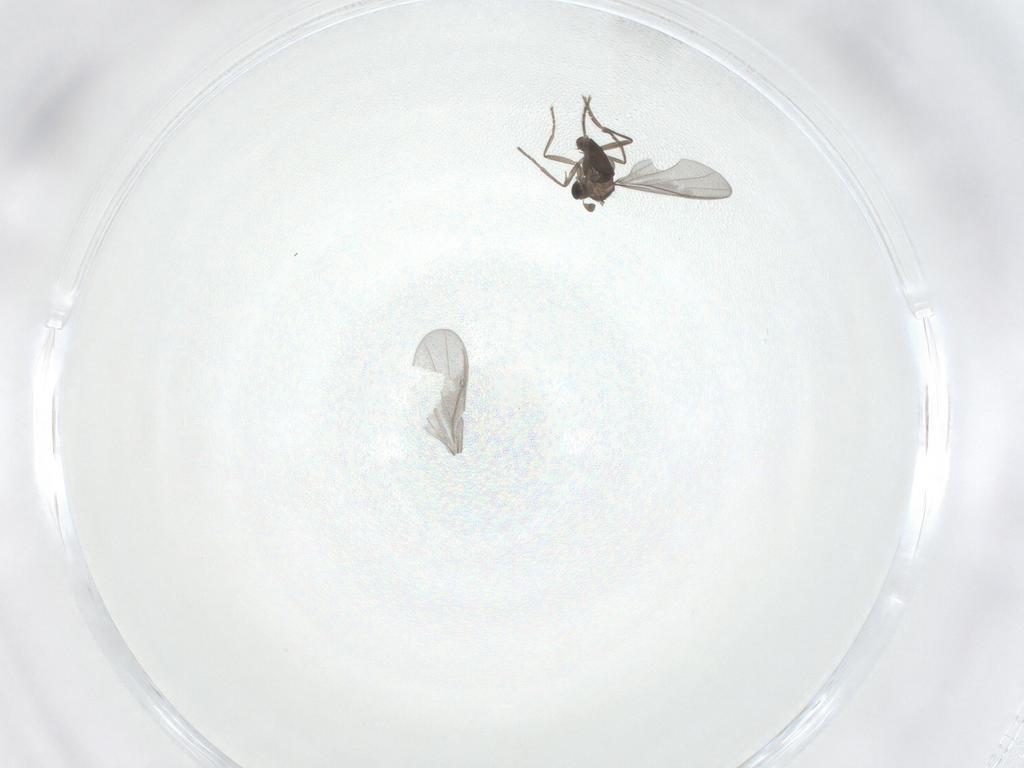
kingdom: Animalia
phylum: Arthropoda
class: Insecta
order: Diptera
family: Phoridae
